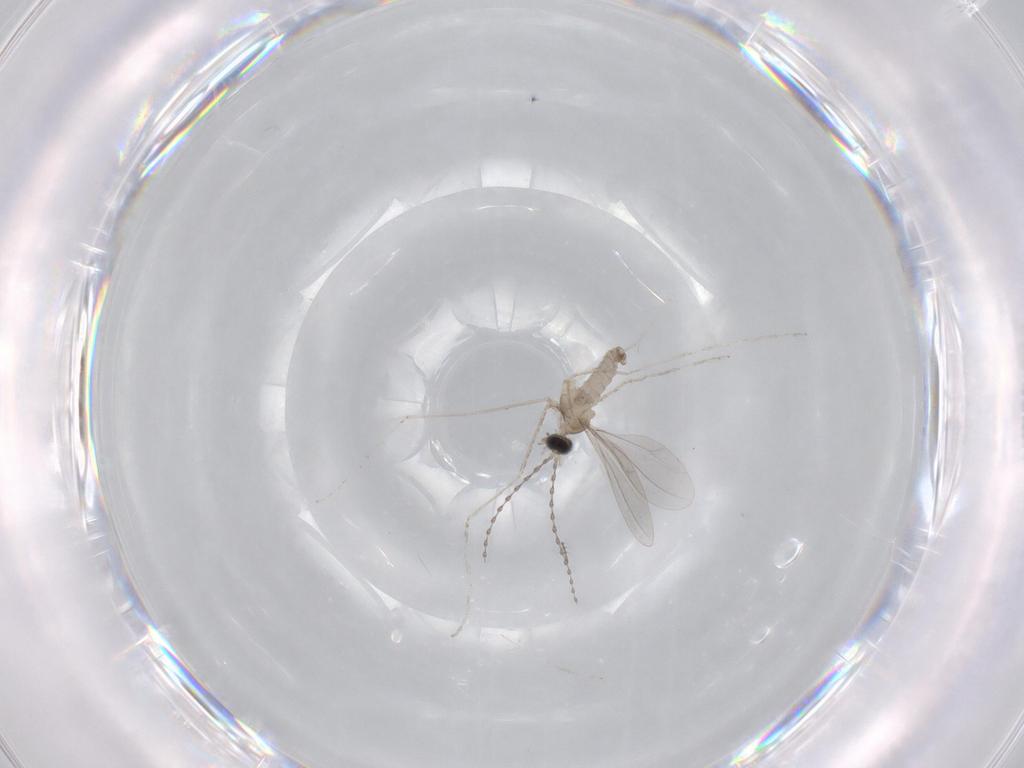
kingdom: Animalia
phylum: Arthropoda
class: Insecta
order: Diptera
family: Cecidomyiidae
